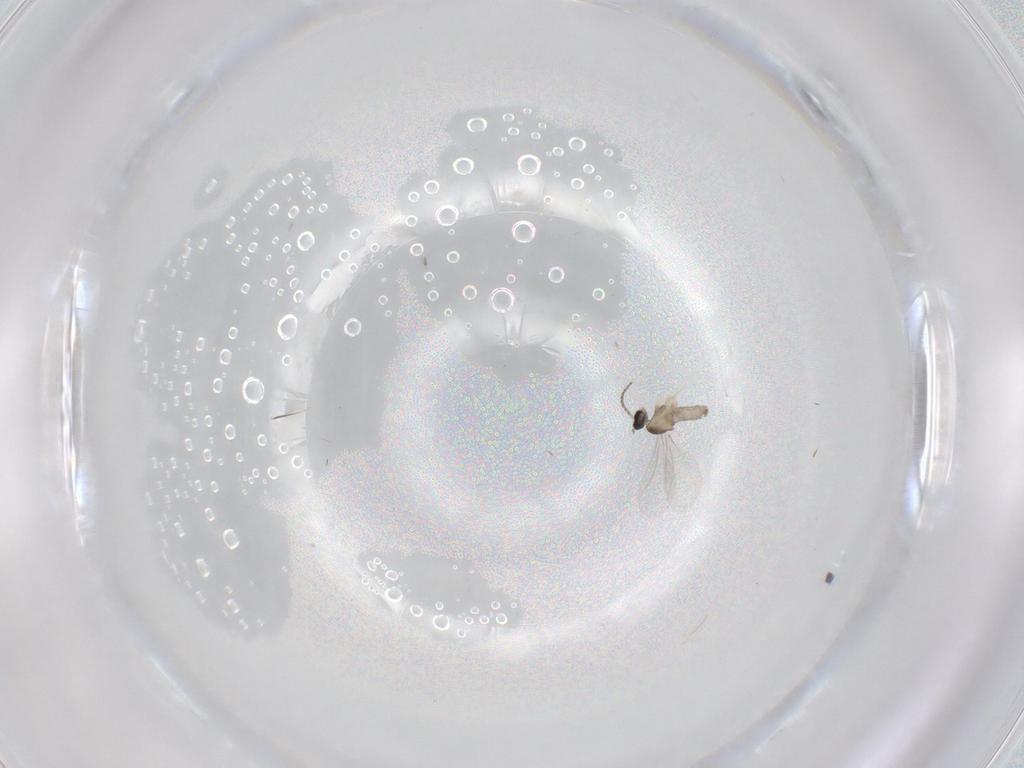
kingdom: Animalia
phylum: Arthropoda
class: Insecta
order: Diptera
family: Cecidomyiidae
